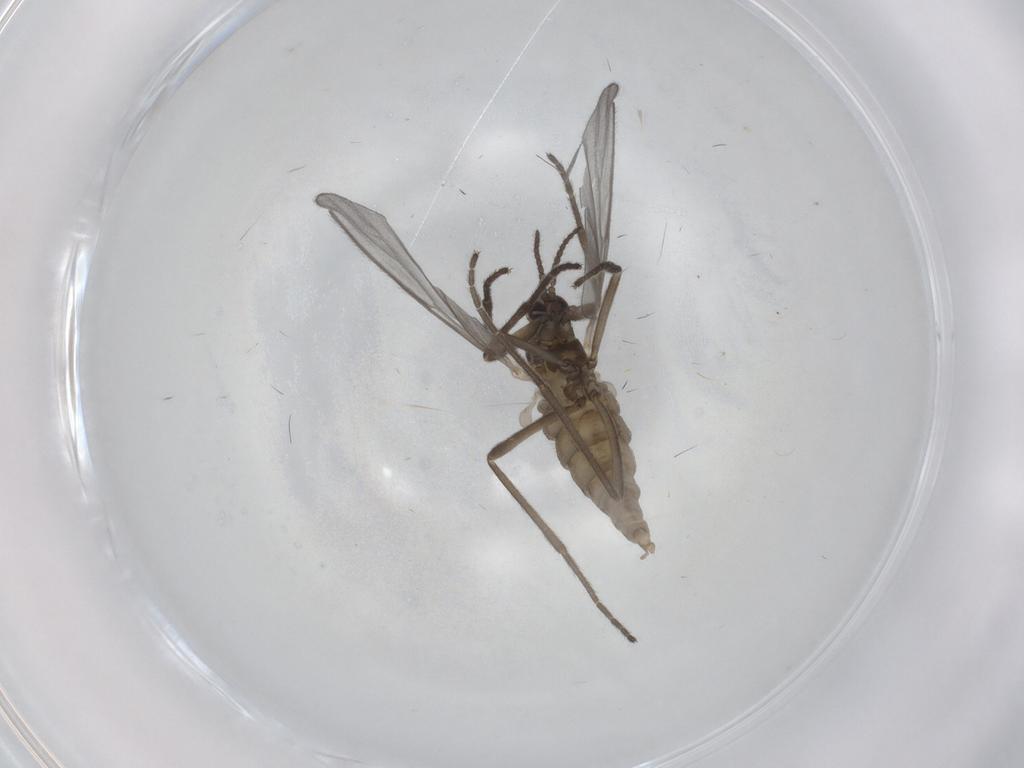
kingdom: Animalia
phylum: Arthropoda
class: Insecta
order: Diptera
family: Cecidomyiidae
